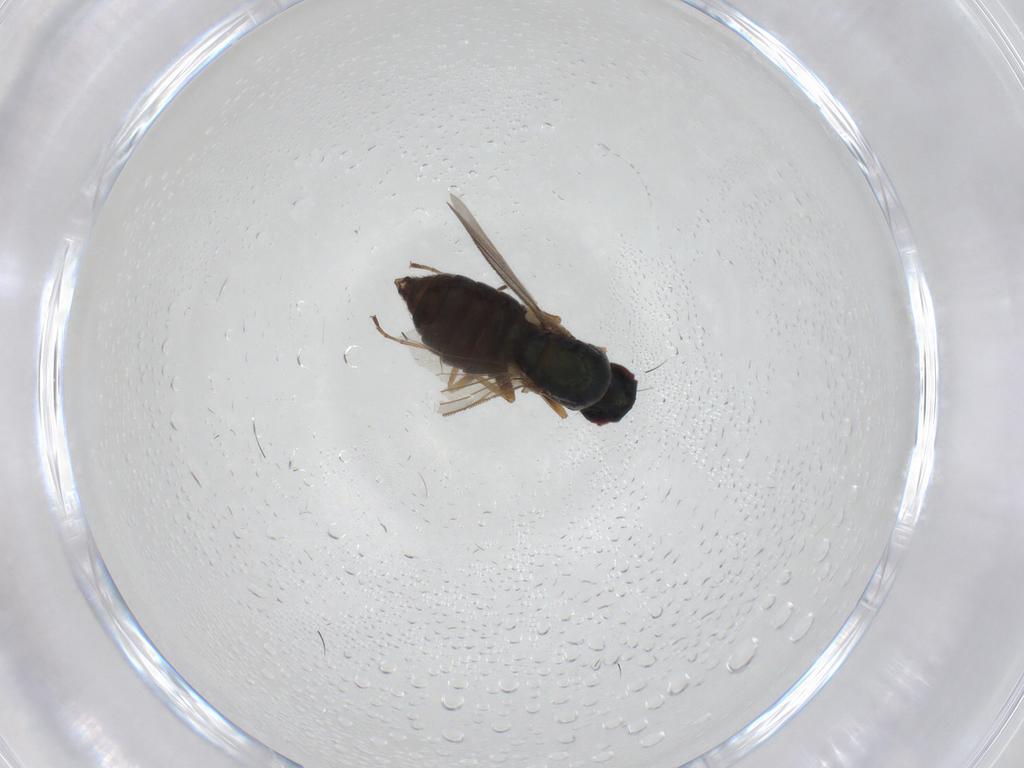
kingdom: Animalia
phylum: Arthropoda
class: Insecta
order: Diptera
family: Dolichopodidae
